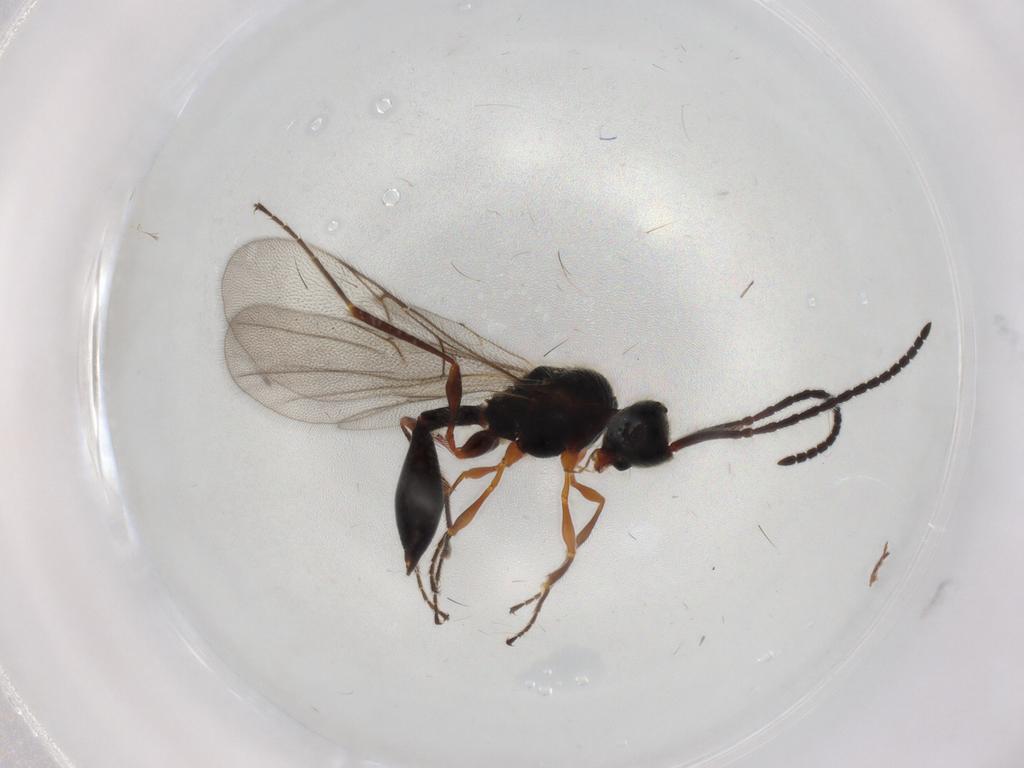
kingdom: Animalia
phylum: Arthropoda
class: Insecta
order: Hymenoptera
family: Diapriidae
